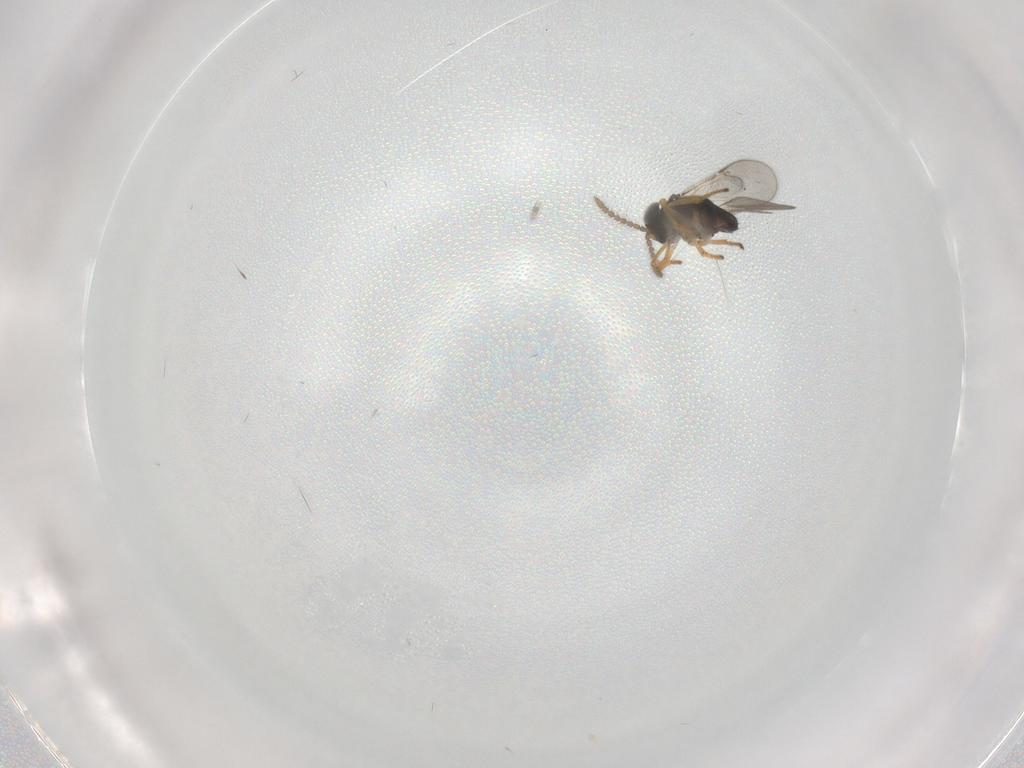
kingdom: Animalia
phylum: Arthropoda
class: Insecta
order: Hymenoptera
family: Encyrtidae
